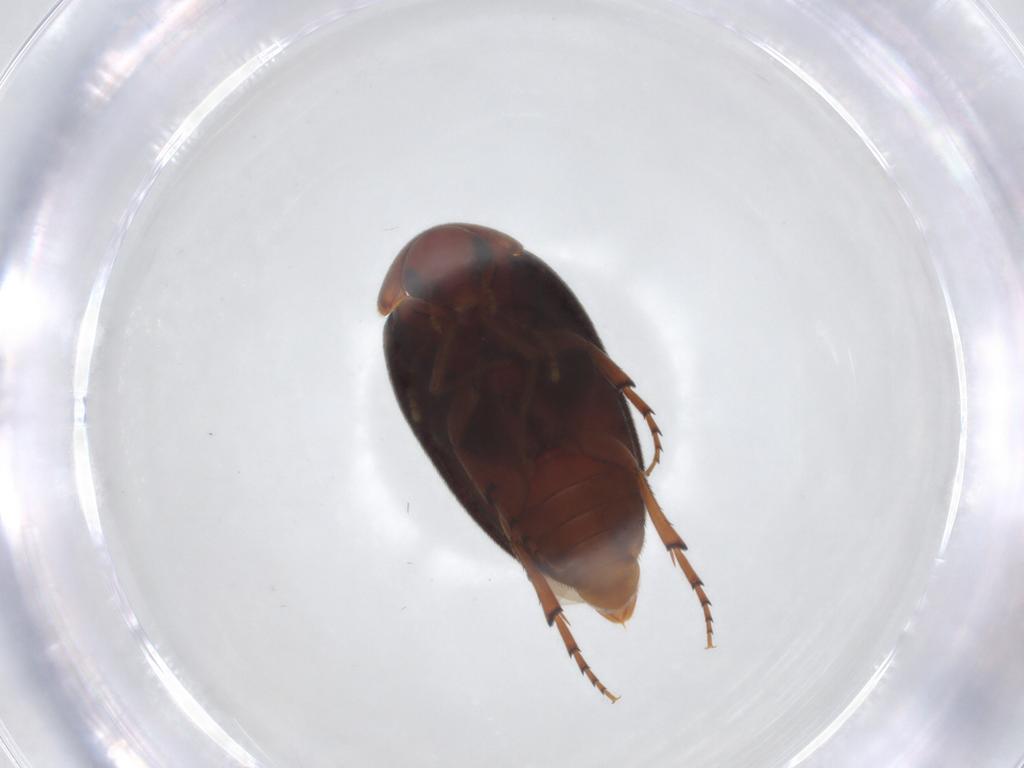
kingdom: Animalia
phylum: Arthropoda
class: Insecta
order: Coleoptera
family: Eucinetidae
